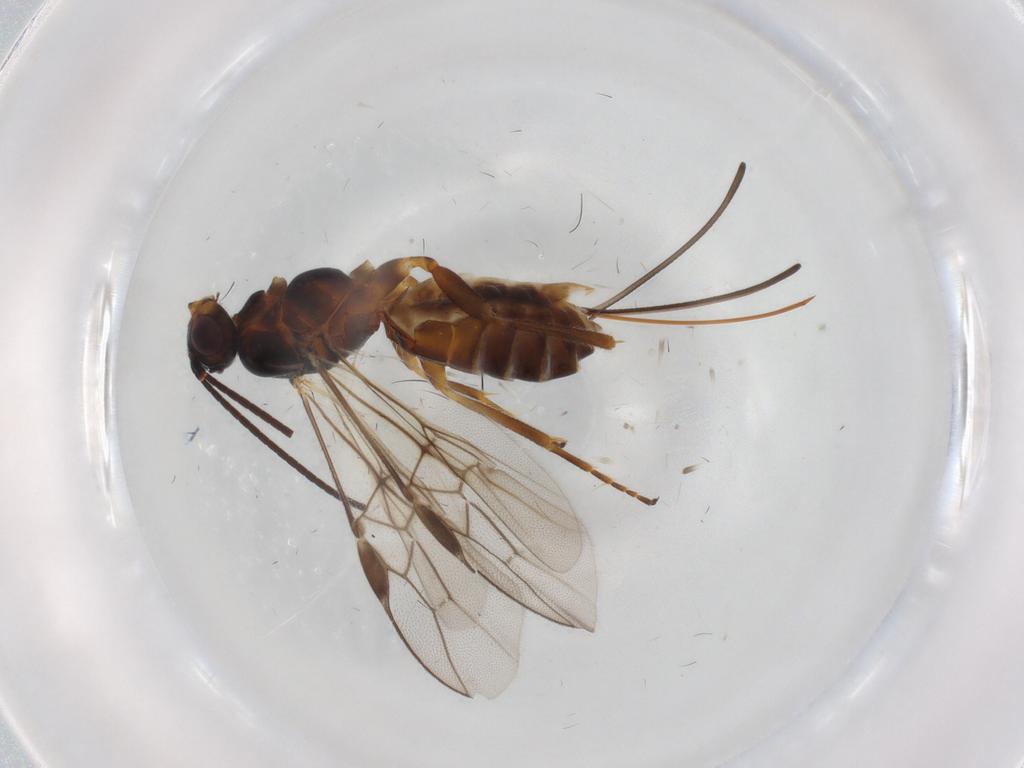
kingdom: Animalia
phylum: Arthropoda
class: Insecta
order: Hymenoptera
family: Braconidae
